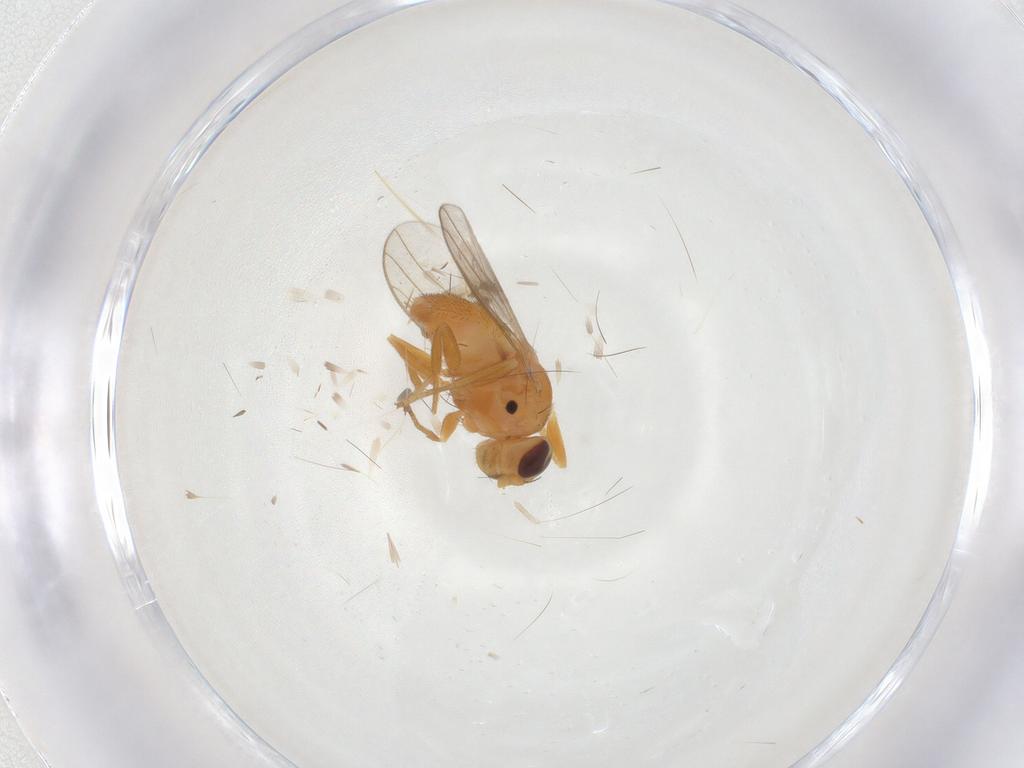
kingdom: Animalia
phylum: Arthropoda
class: Insecta
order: Diptera
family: Chloropidae
